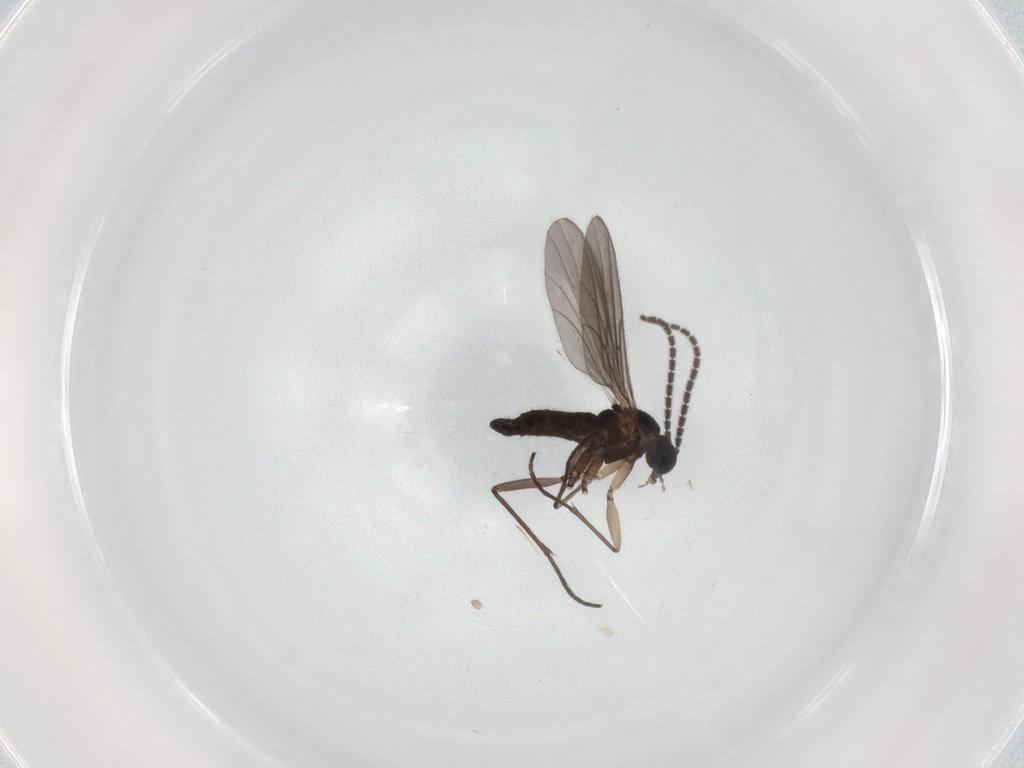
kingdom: Animalia
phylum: Arthropoda
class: Insecta
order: Diptera
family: Sciaridae
